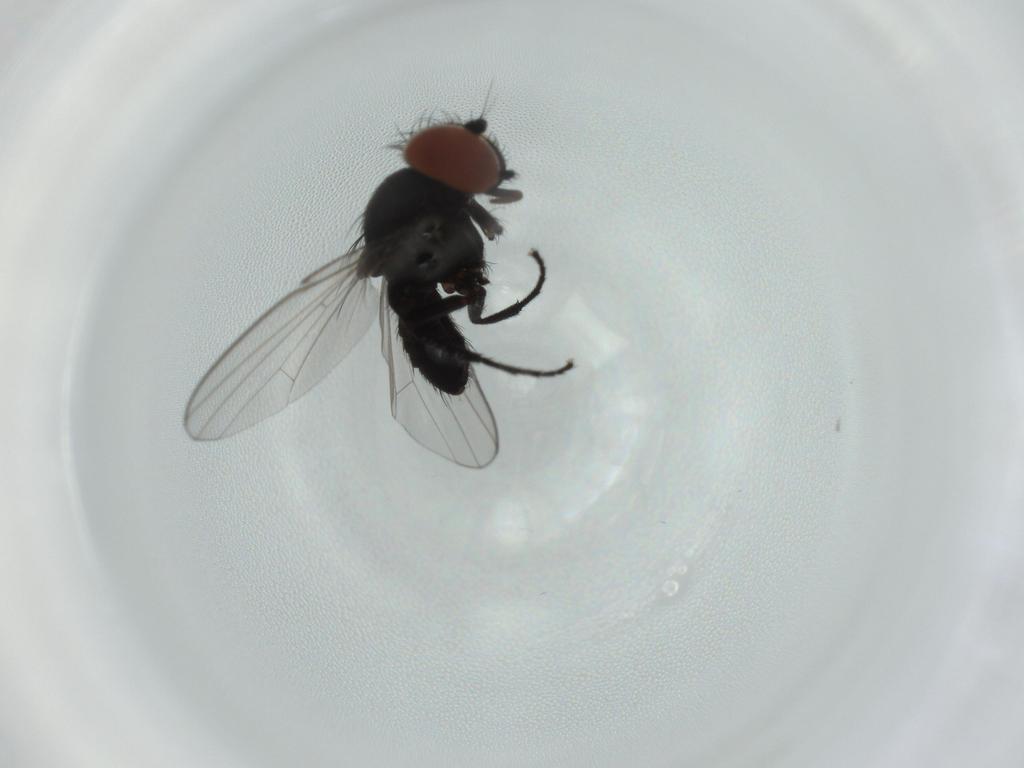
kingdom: Animalia
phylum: Arthropoda
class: Insecta
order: Diptera
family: Milichiidae
